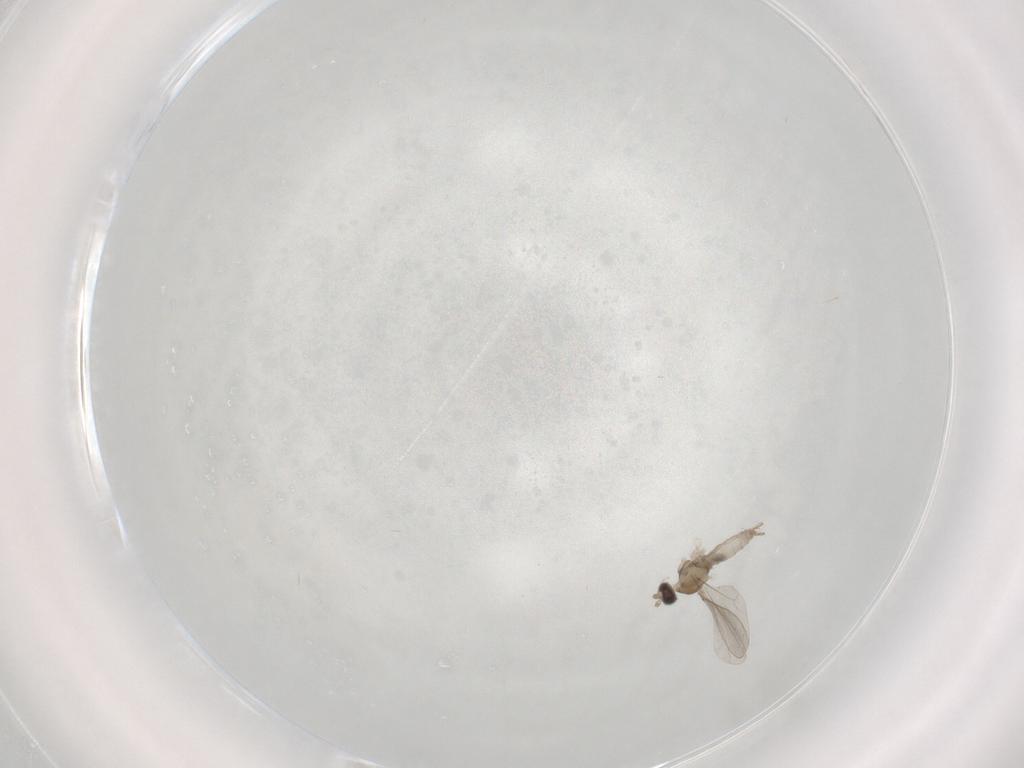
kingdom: Animalia
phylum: Arthropoda
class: Insecta
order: Diptera
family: Cecidomyiidae
